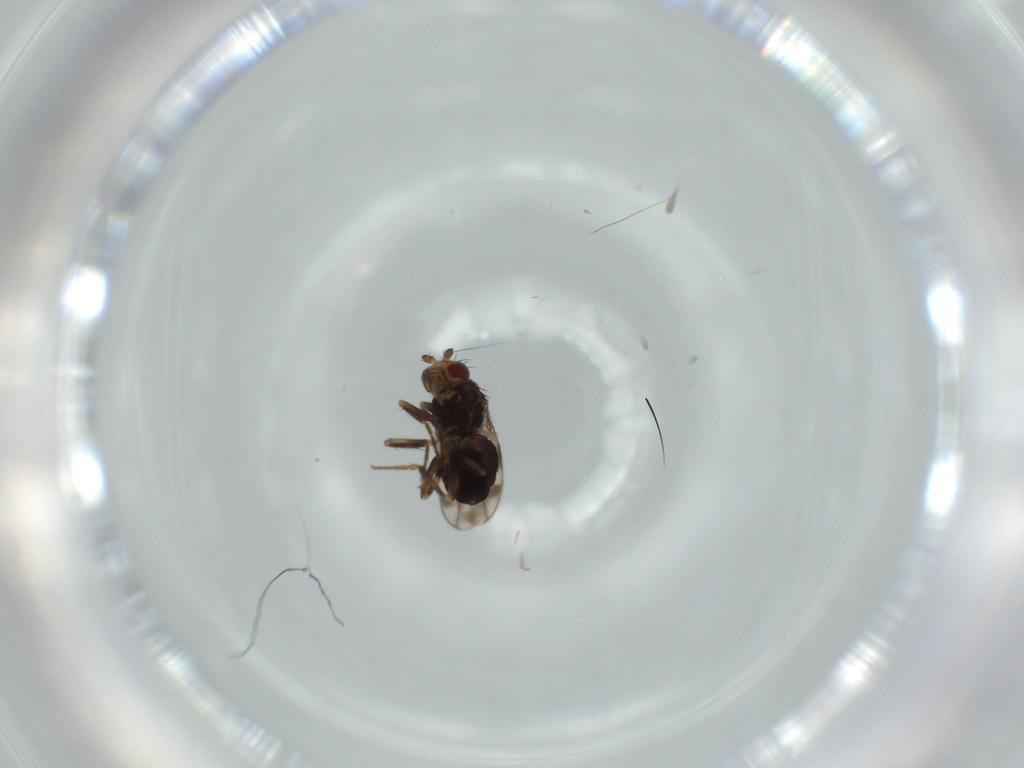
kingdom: Animalia
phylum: Arthropoda
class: Insecta
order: Diptera
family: Sphaeroceridae
